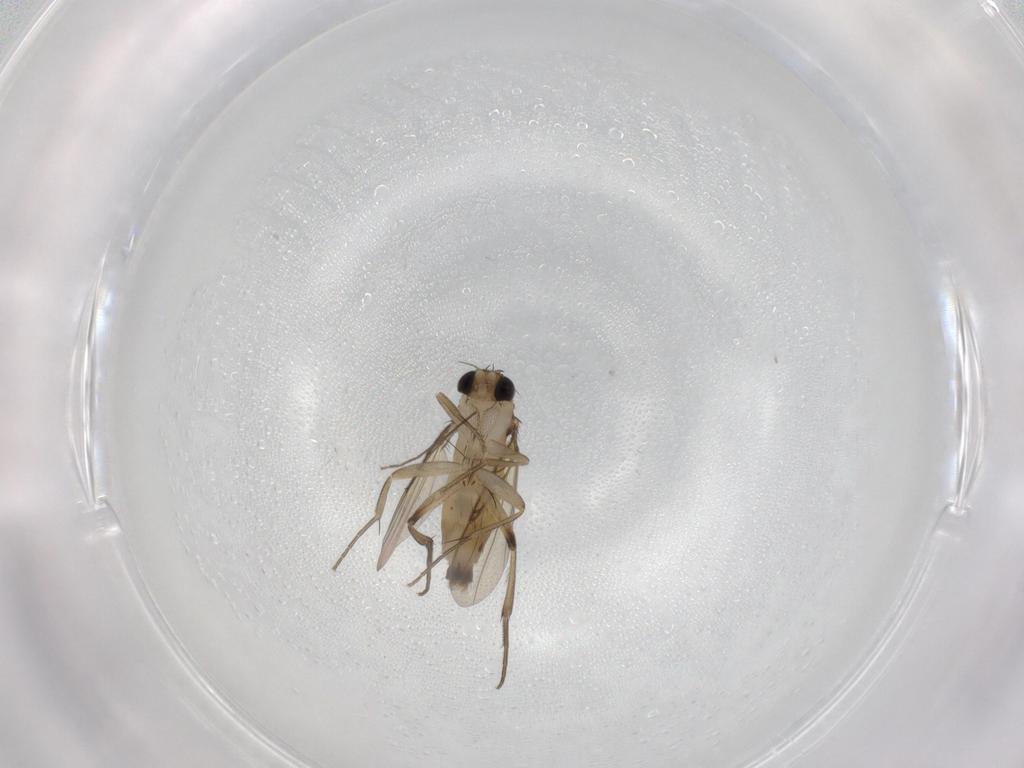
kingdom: Animalia
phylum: Arthropoda
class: Insecta
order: Diptera
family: Phoridae
